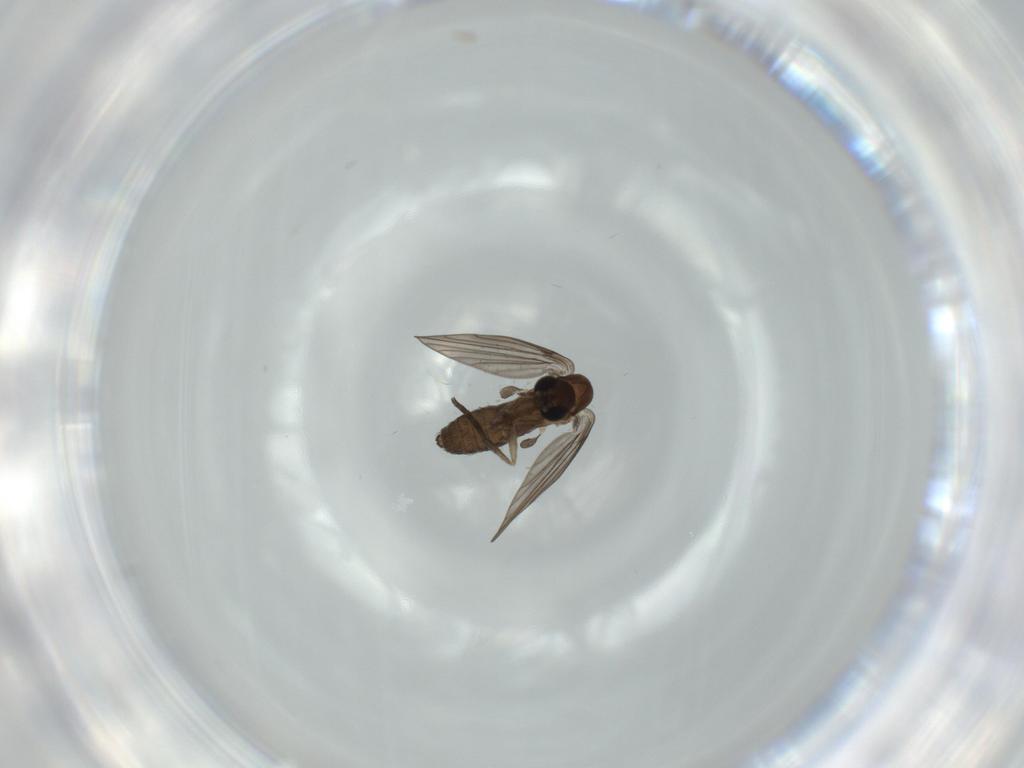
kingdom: Animalia
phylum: Arthropoda
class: Insecta
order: Diptera
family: Psychodidae
